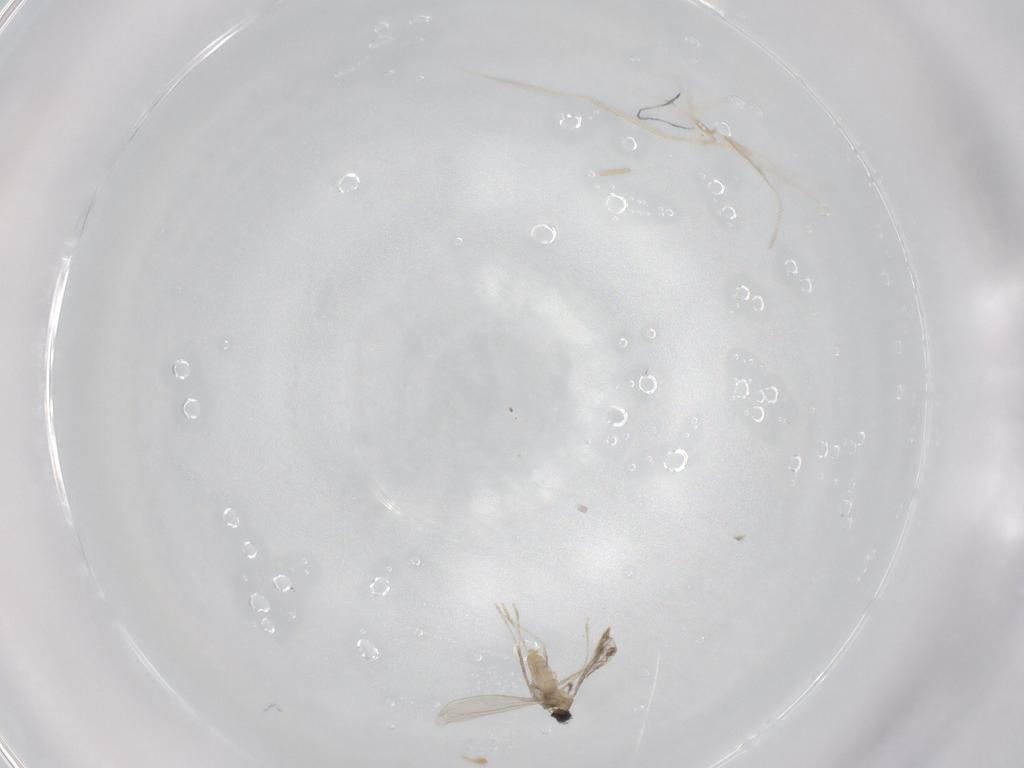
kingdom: Animalia
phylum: Arthropoda
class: Insecta
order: Diptera
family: Cecidomyiidae
